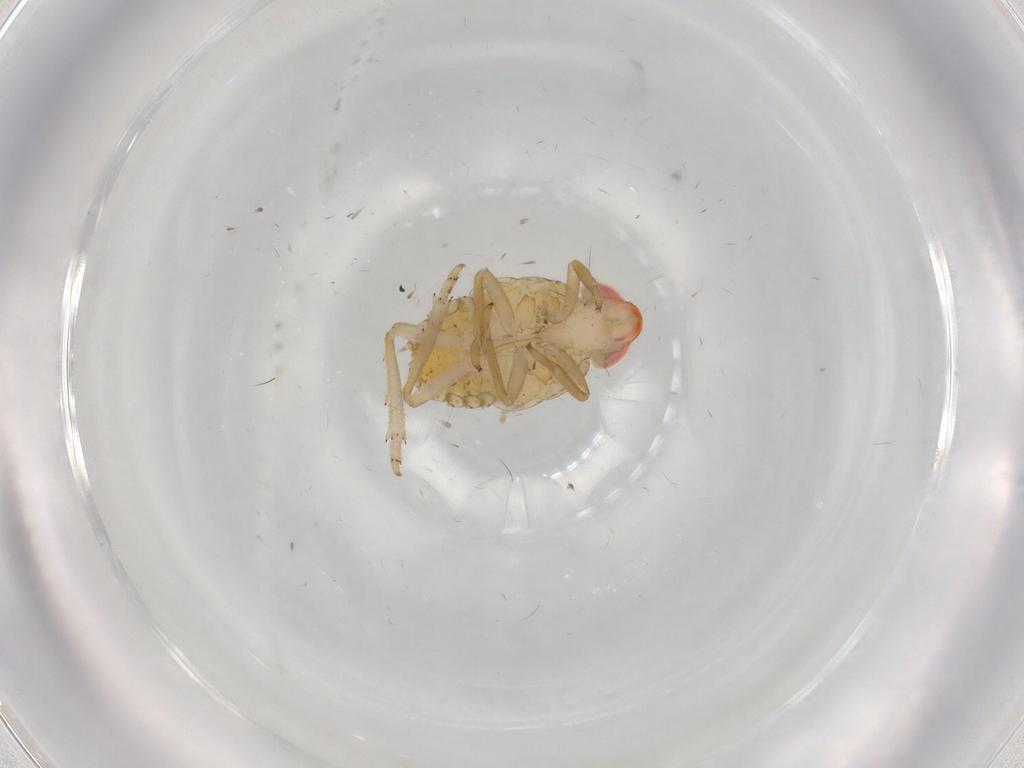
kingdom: Animalia
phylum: Arthropoda
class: Insecta
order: Hemiptera
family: Issidae
